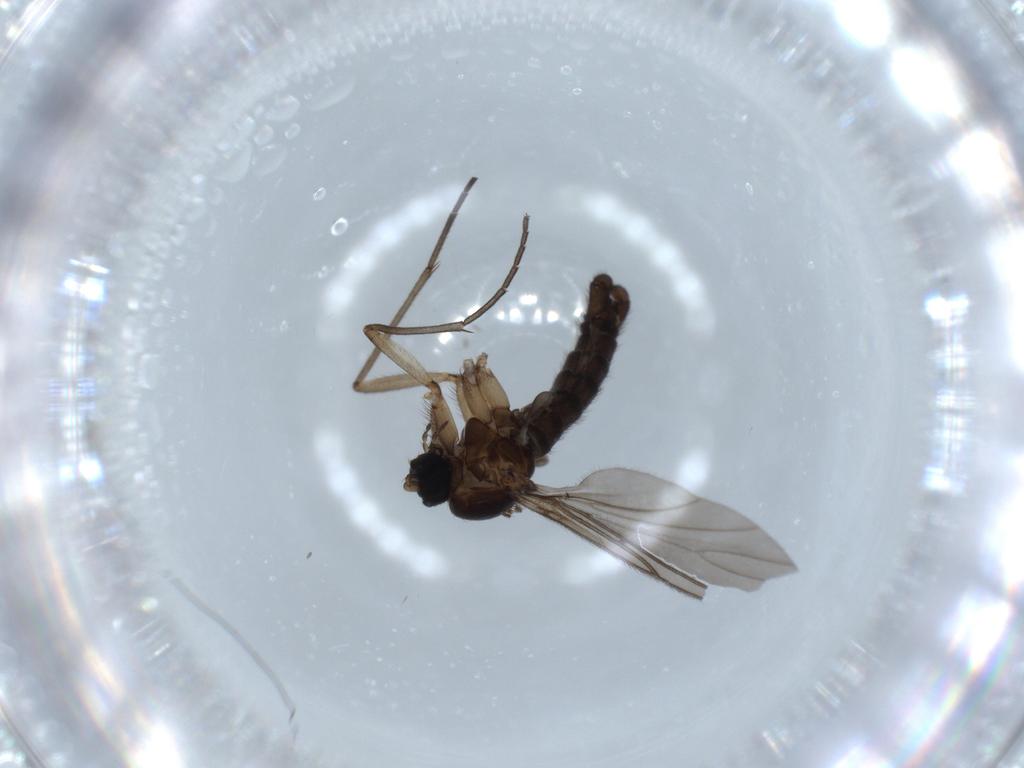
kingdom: Animalia
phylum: Arthropoda
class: Insecta
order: Diptera
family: Sciaridae
